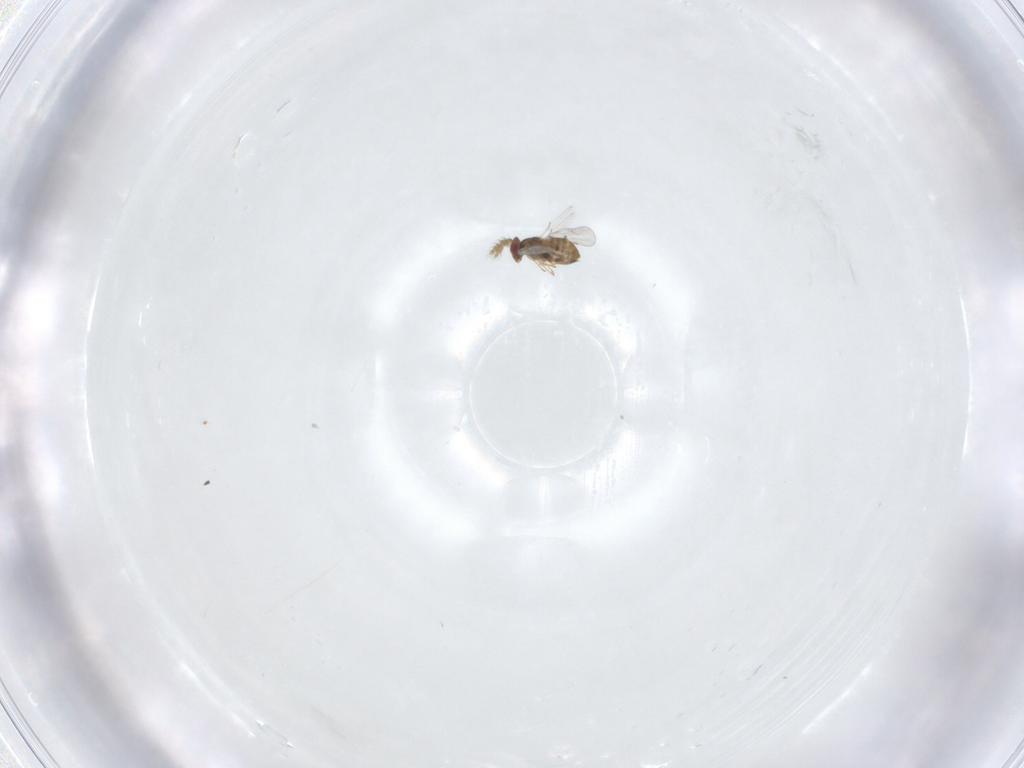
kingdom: Animalia
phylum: Arthropoda
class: Insecta
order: Hymenoptera
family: Trichogrammatidae
